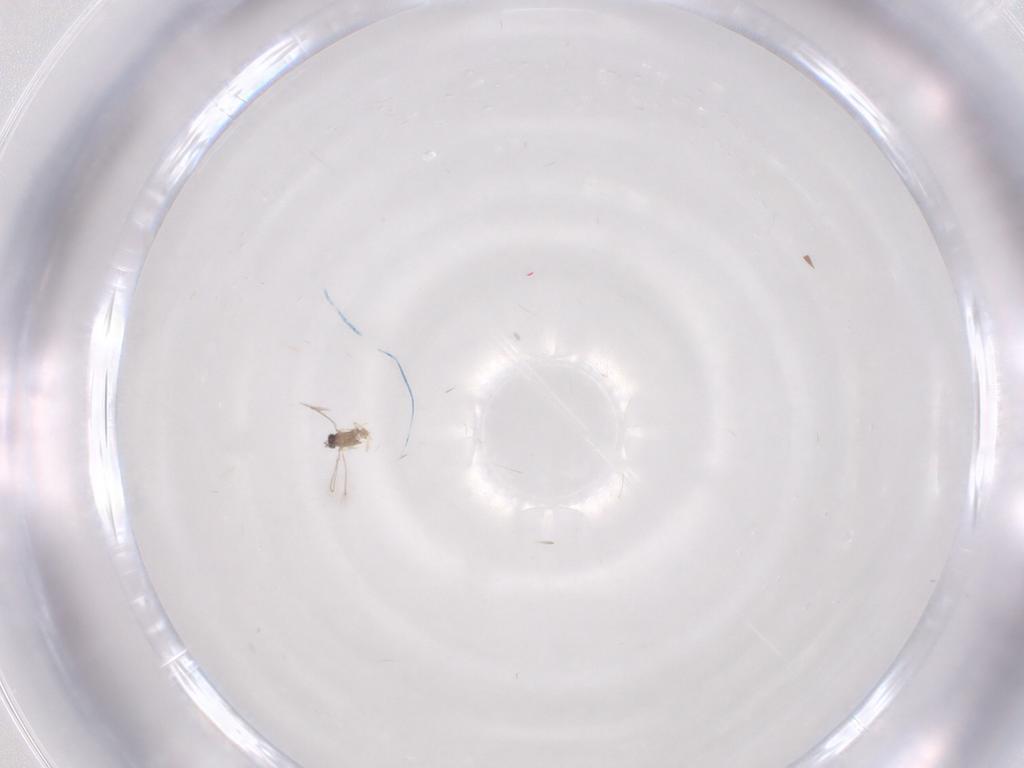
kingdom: Animalia
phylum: Arthropoda
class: Insecta
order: Hymenoptera
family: Mymaridae
